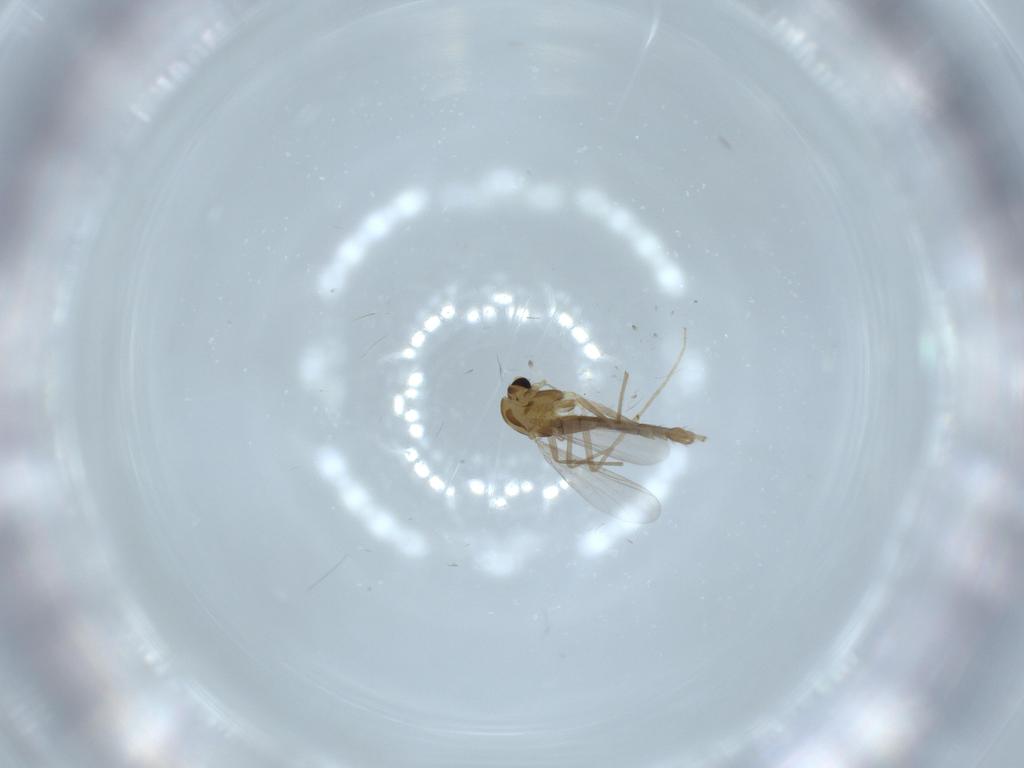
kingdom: Animalia
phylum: Arthropoda
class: Insecta
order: Diptera
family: Chironomidae
